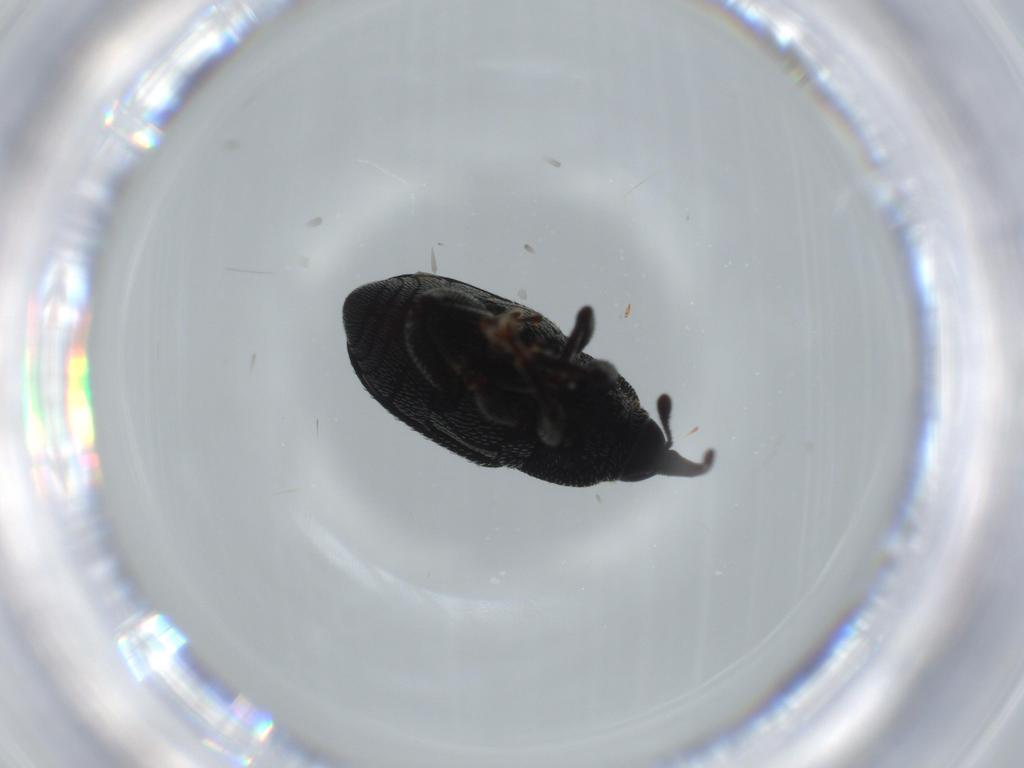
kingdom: Animalia
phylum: Arthropoda
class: Insecta
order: Coleoptera
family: Curculionidae
